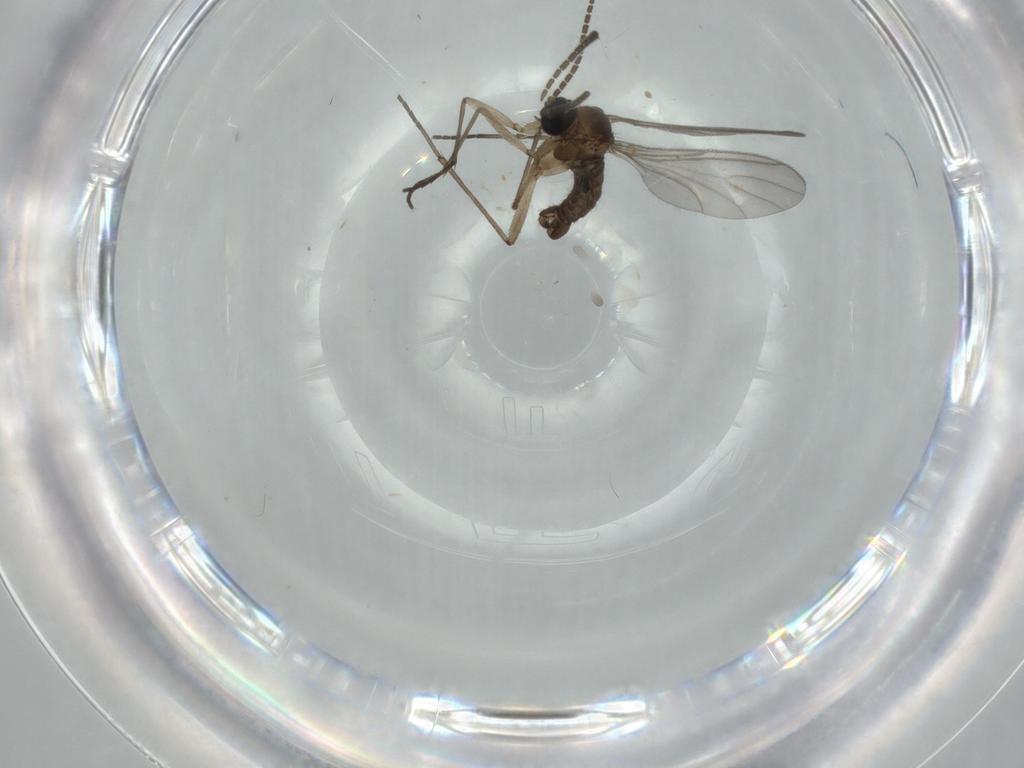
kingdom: Animalia
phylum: Arthropoda
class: Insecta
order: Diptera
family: Sciaridae
